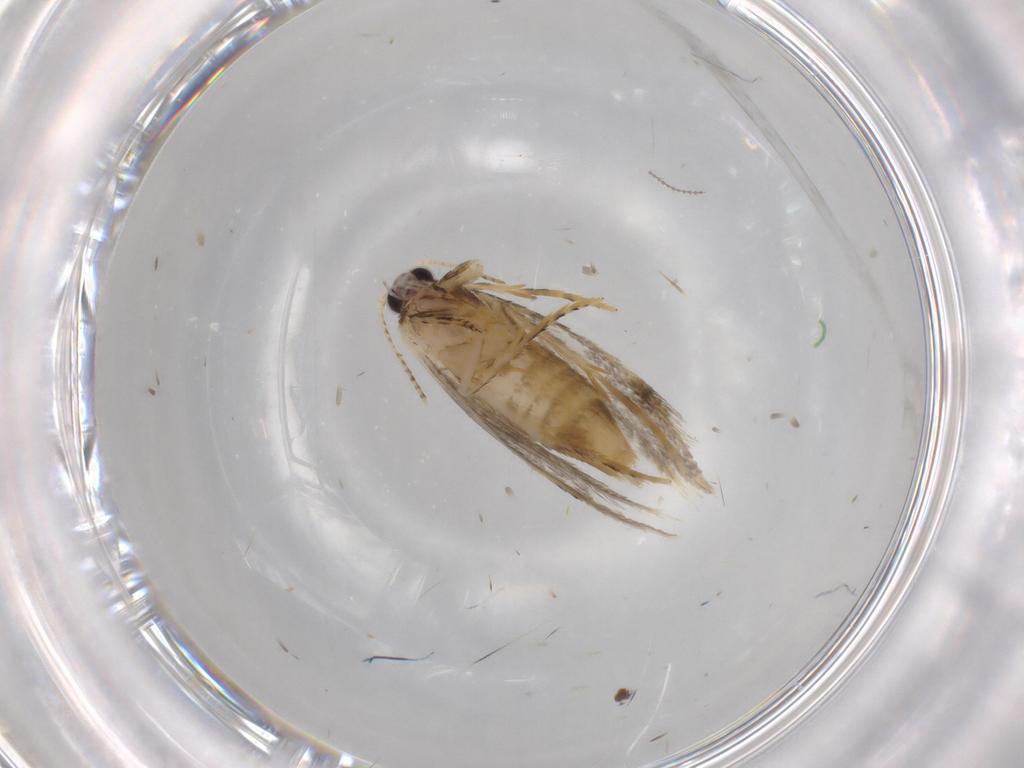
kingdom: Animalia
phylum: Arthropoda
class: Insecta
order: Lepidoptera
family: Nepticulidae
